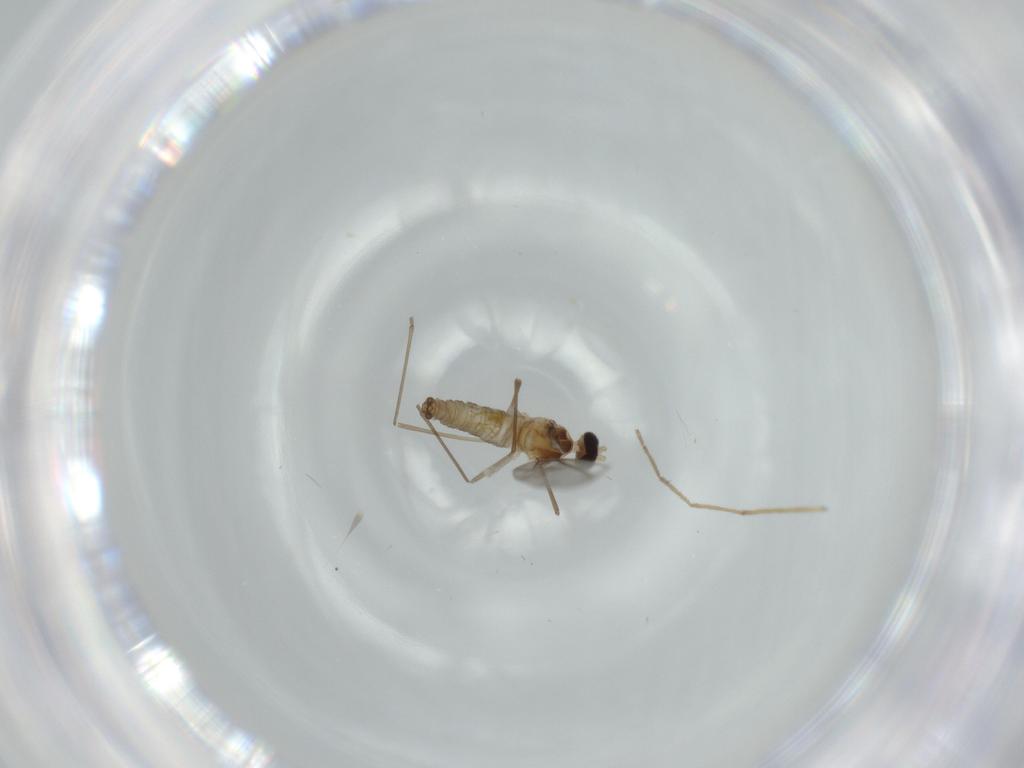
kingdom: Animalia
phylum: Arthropoda
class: Insecta
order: Diptera
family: Cecidomyiidae
